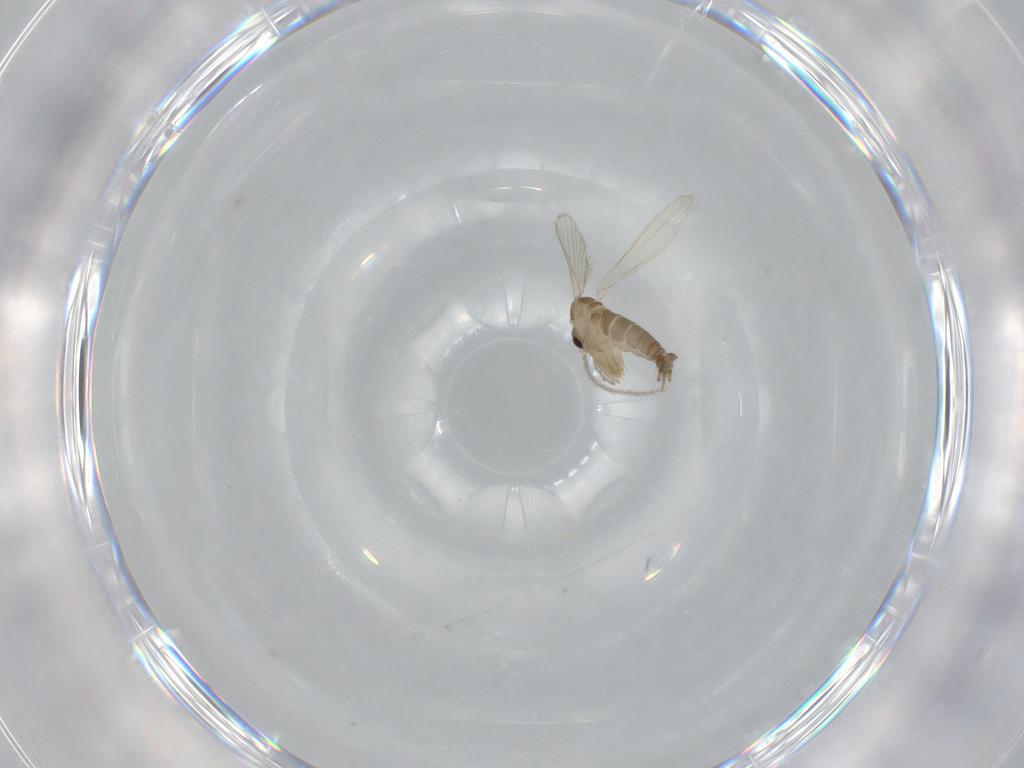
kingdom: Animalia
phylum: Arthropoda
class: Insecta
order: Diptera
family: Psychodidae
